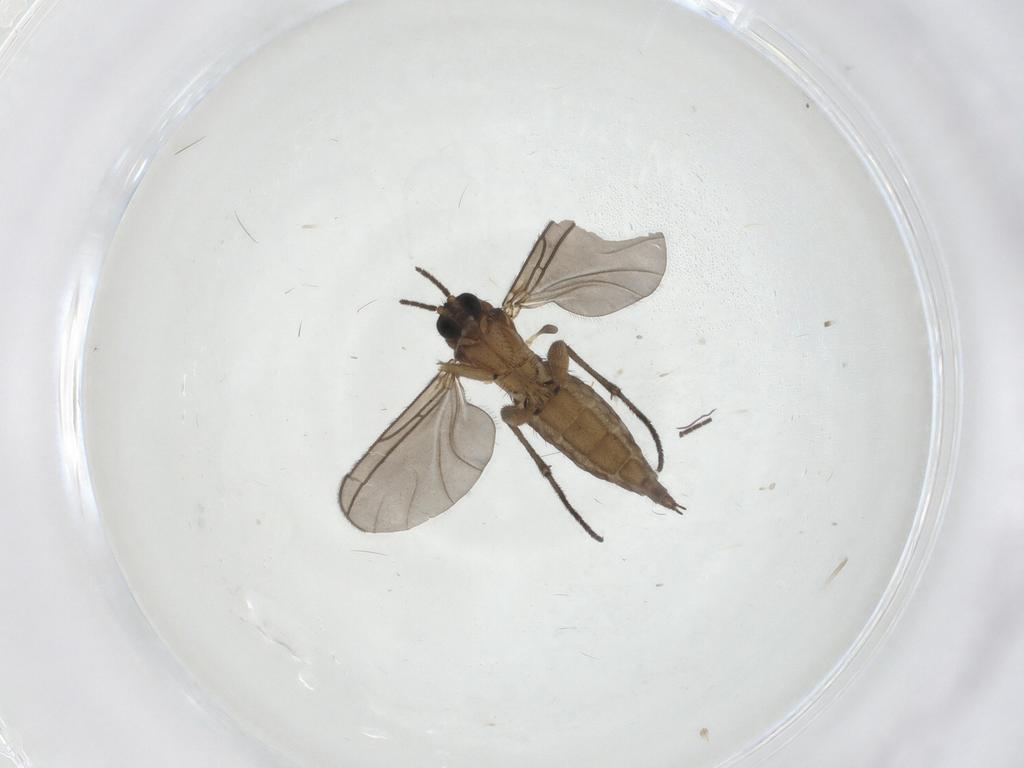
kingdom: Animalia
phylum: Arthropoda
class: Insecta
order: Diptera
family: Sciaridae
